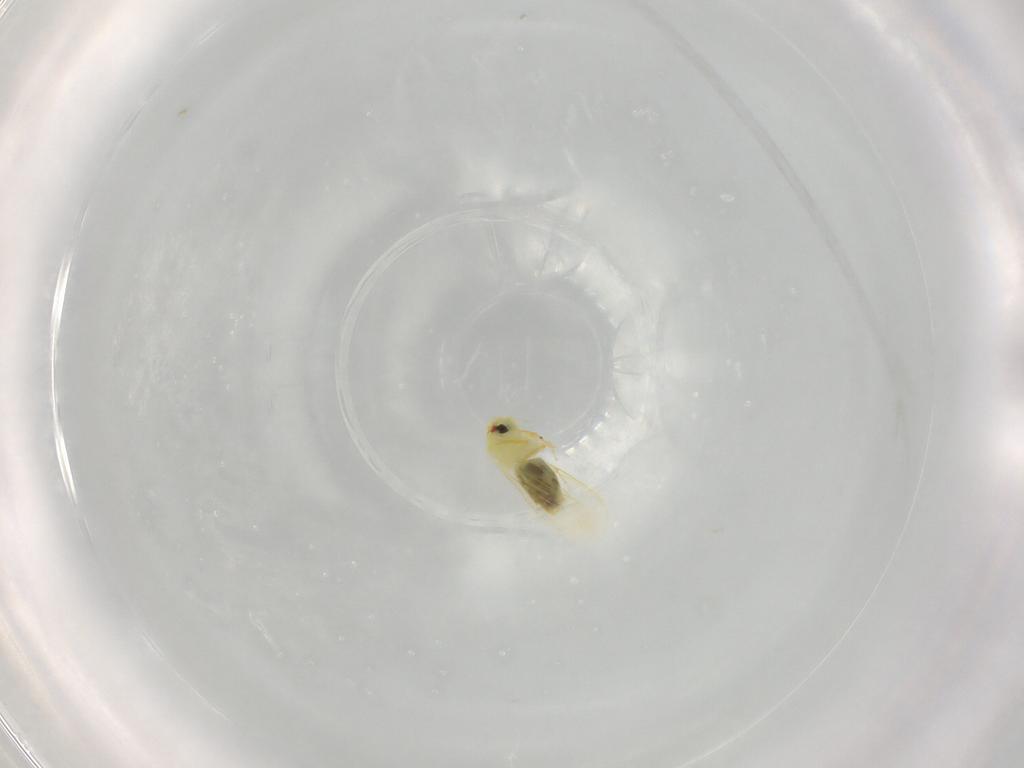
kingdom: Animalia
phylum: Arthropoda
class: Insecta
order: Hemiptera
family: Aleyrodidae
